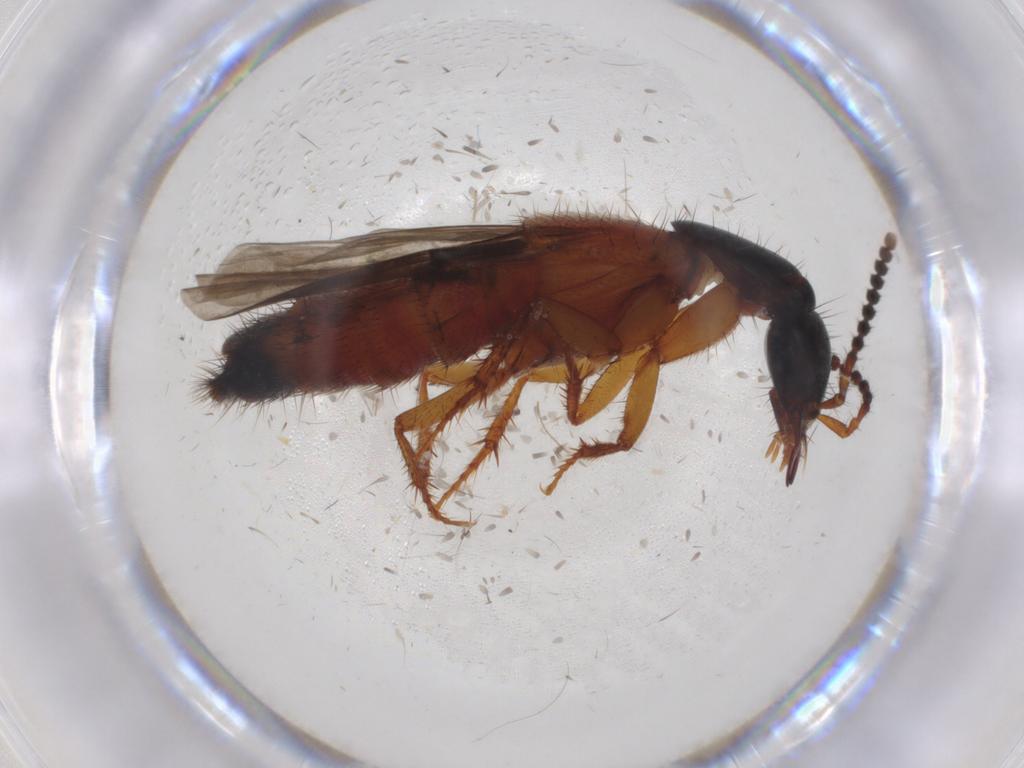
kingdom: Animalia
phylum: Arthropoda
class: Insecta
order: Coleoptera
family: Staphylinidae
